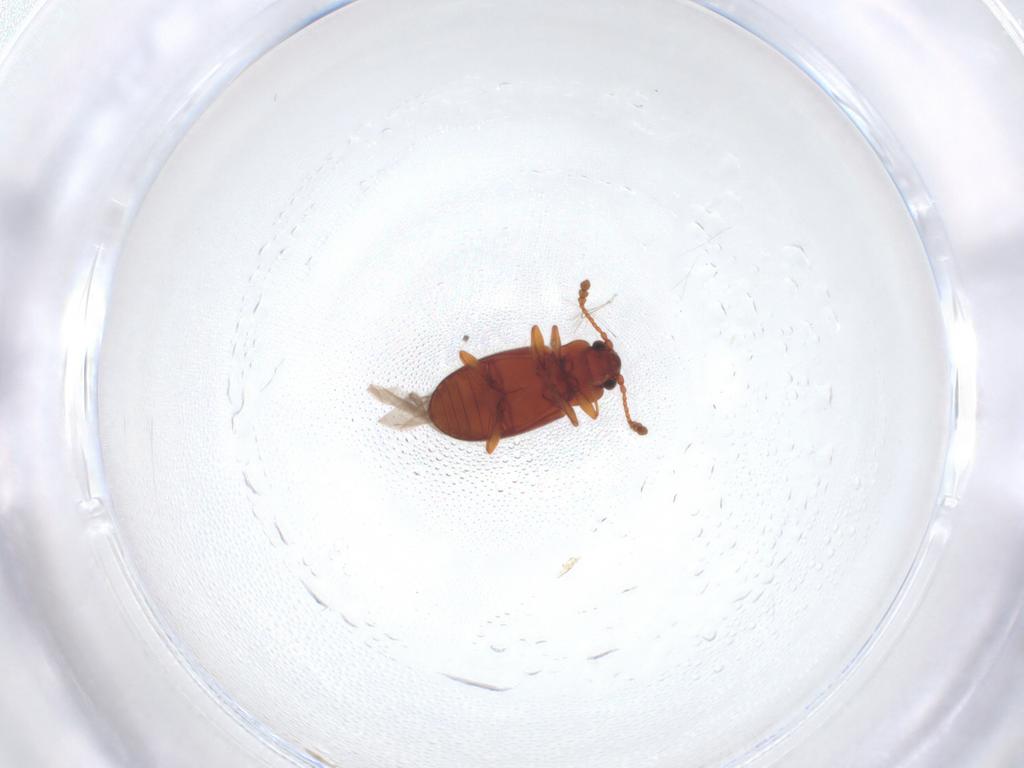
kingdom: Animalia
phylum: Arthropoda
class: Insecta
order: Coleoptera
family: Cryptophagidae
